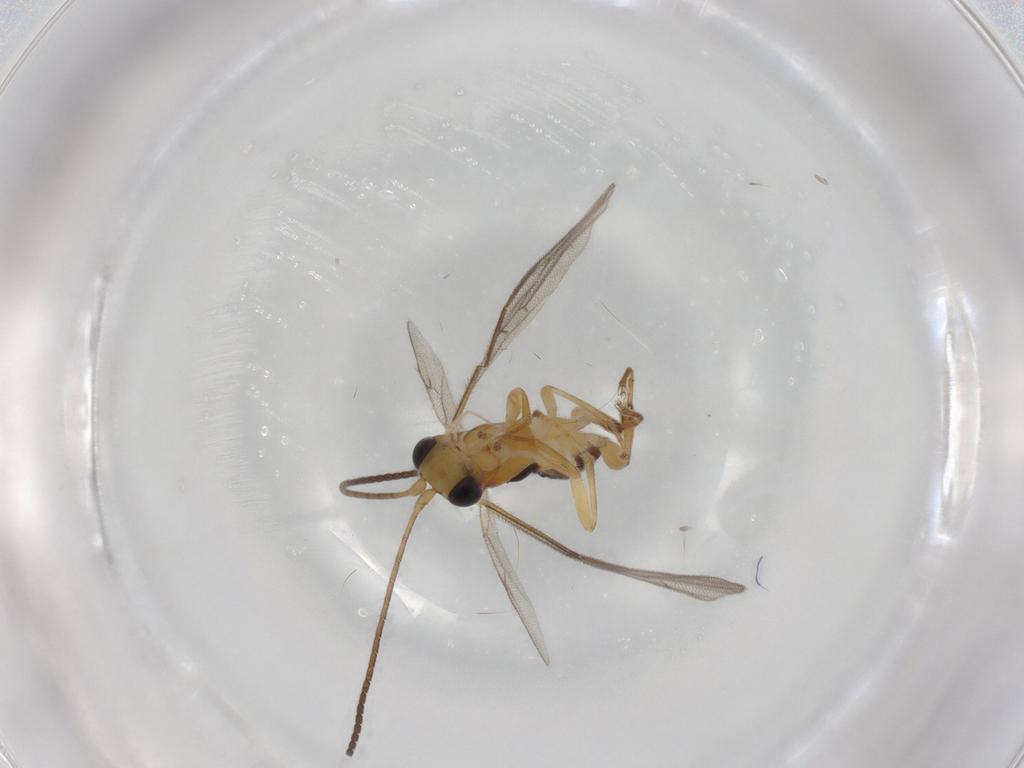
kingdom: Animalia
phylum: Arthropoda
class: Insecta
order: Hymenoptera
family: Ichneumonidae
